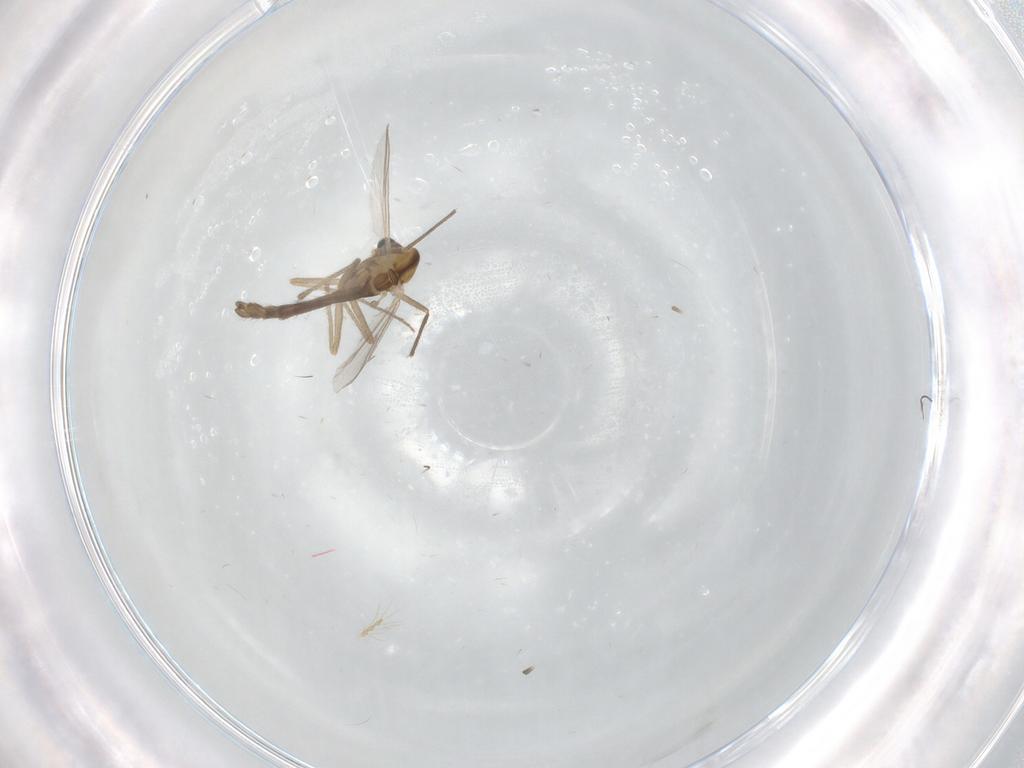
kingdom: Animalia
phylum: Arthropoda
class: Insecta
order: Diptera
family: Chironomidae
